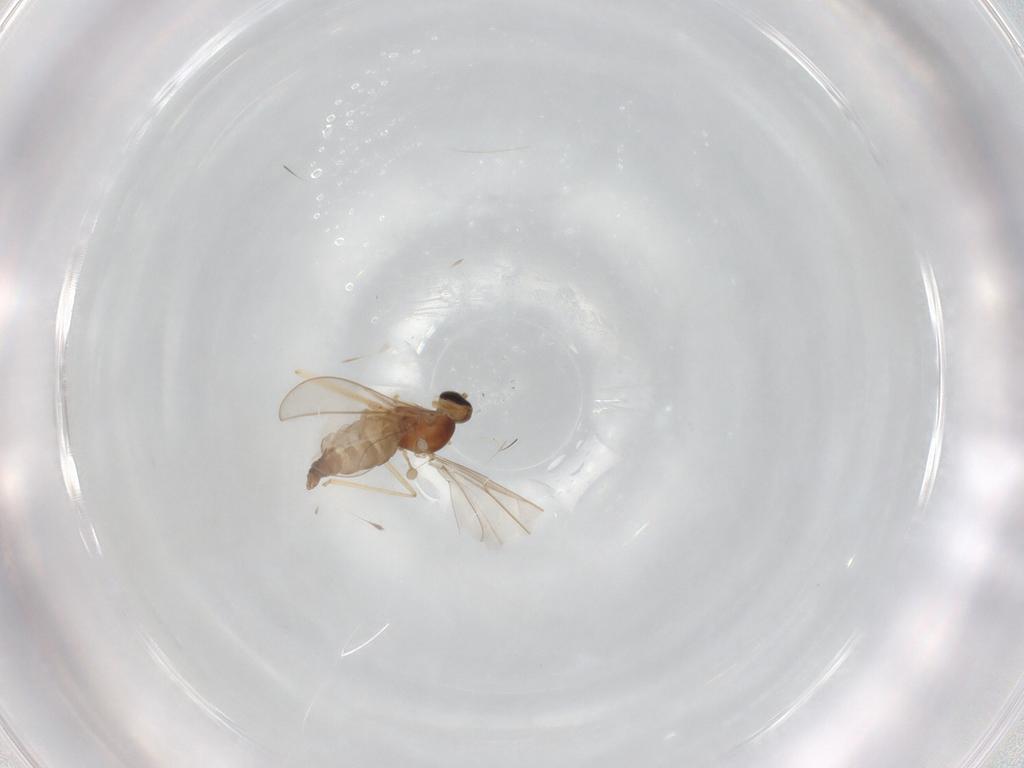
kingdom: Animalia
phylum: Arthropoda
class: Insecta
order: Diptera
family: Cecidomyiidae
